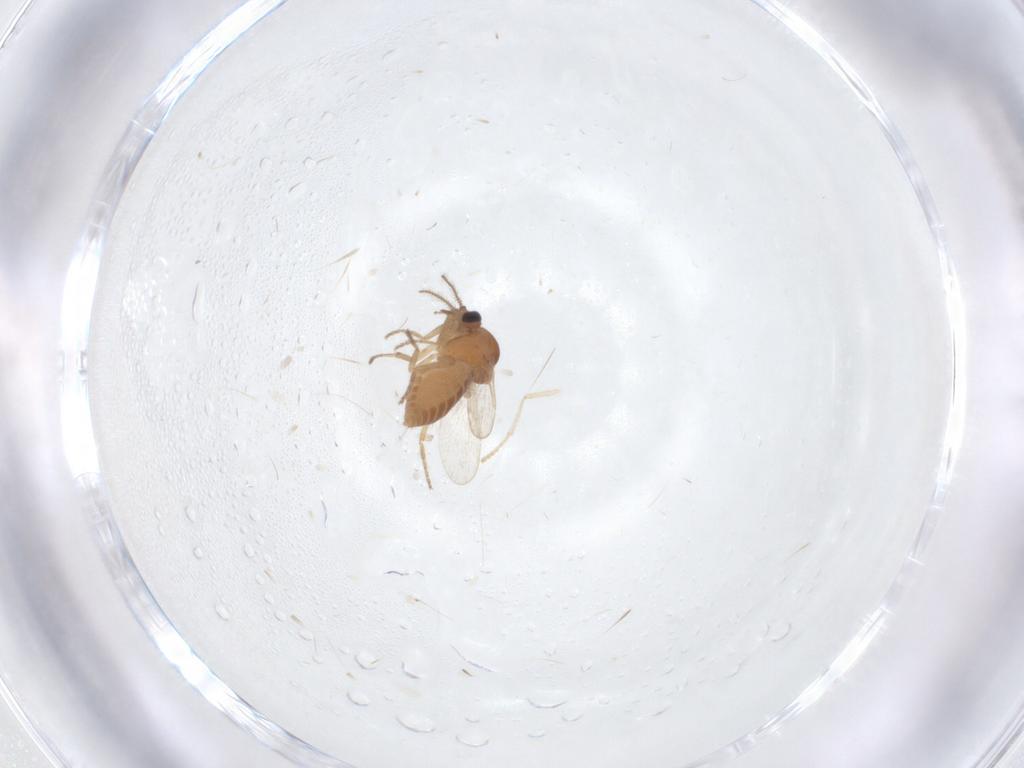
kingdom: Animalia
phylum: Arthropoda
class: Insecta
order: Diptera
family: Ceratopogonidae
